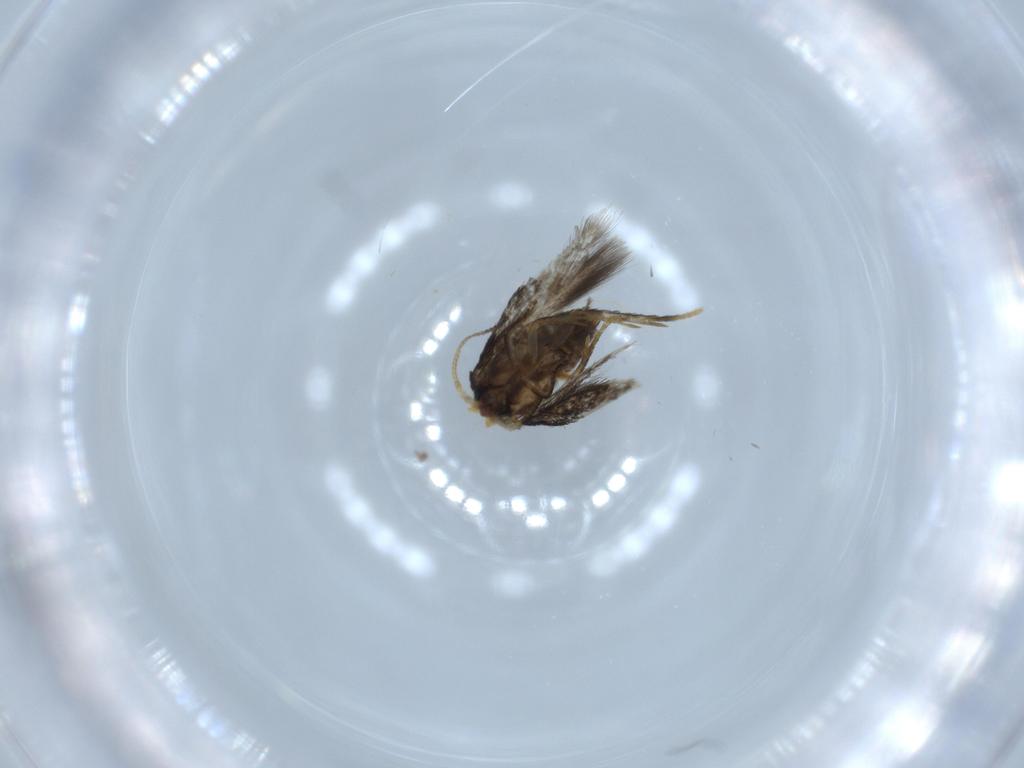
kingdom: Animalia
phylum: Arthropoda
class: Insecta
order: Lepidoptera
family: Nepticulidae
